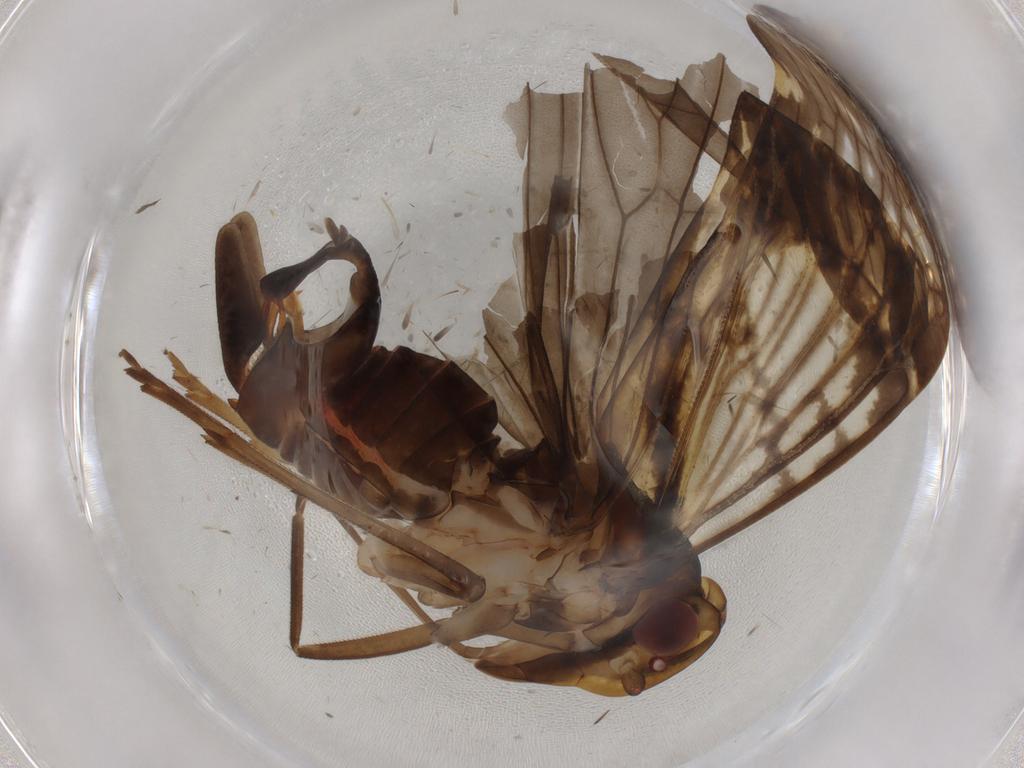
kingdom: Animalia
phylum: Arthropoda
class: Insecta
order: Hemiptera
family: Cixiidae
